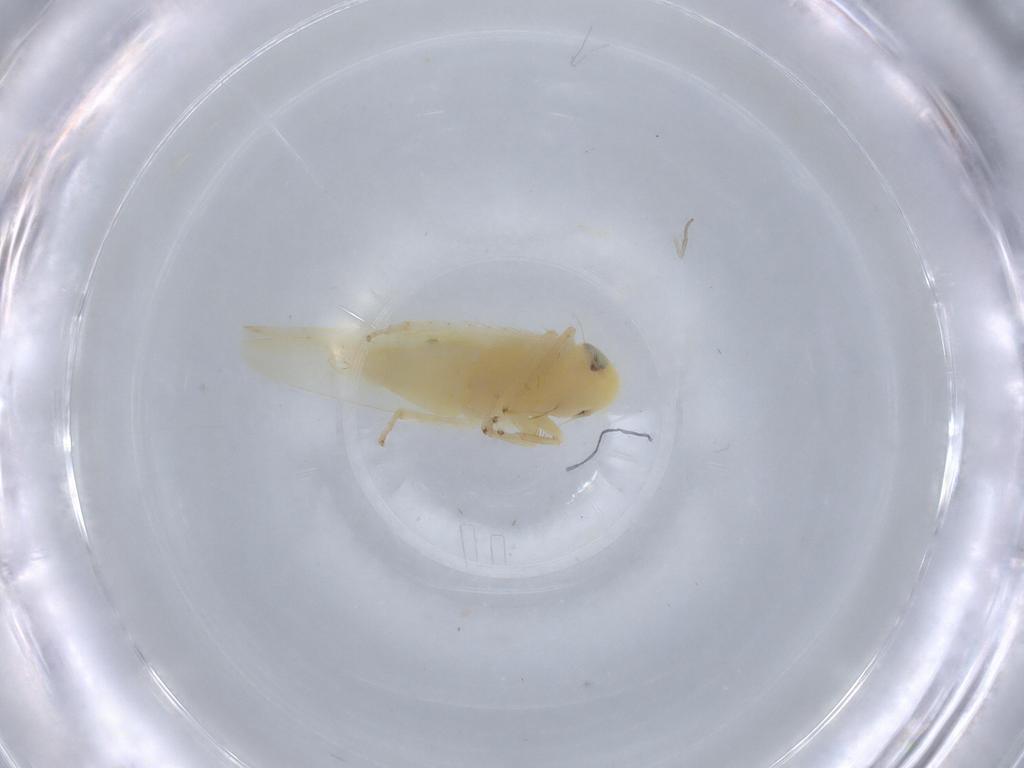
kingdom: Animalia
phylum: Arthropoda
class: Insecta
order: Hemiptera
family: Cicadellidae
